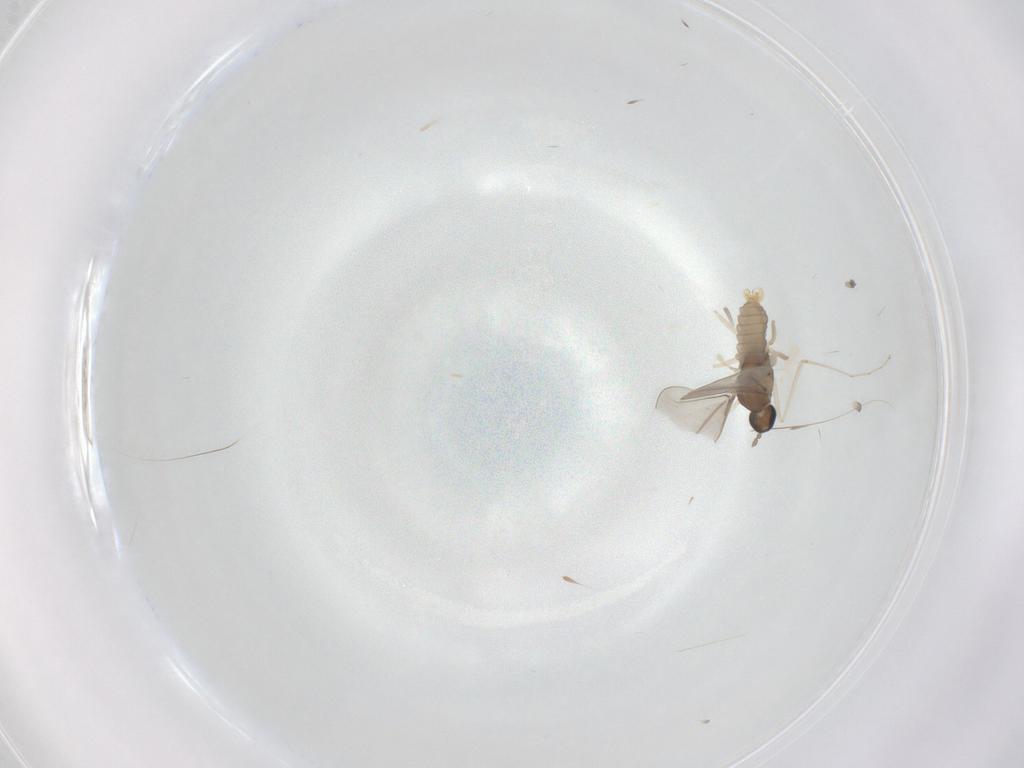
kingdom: Animalia
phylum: Arthropoda
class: Insecta
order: Diptera
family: Cecidomyiidae
